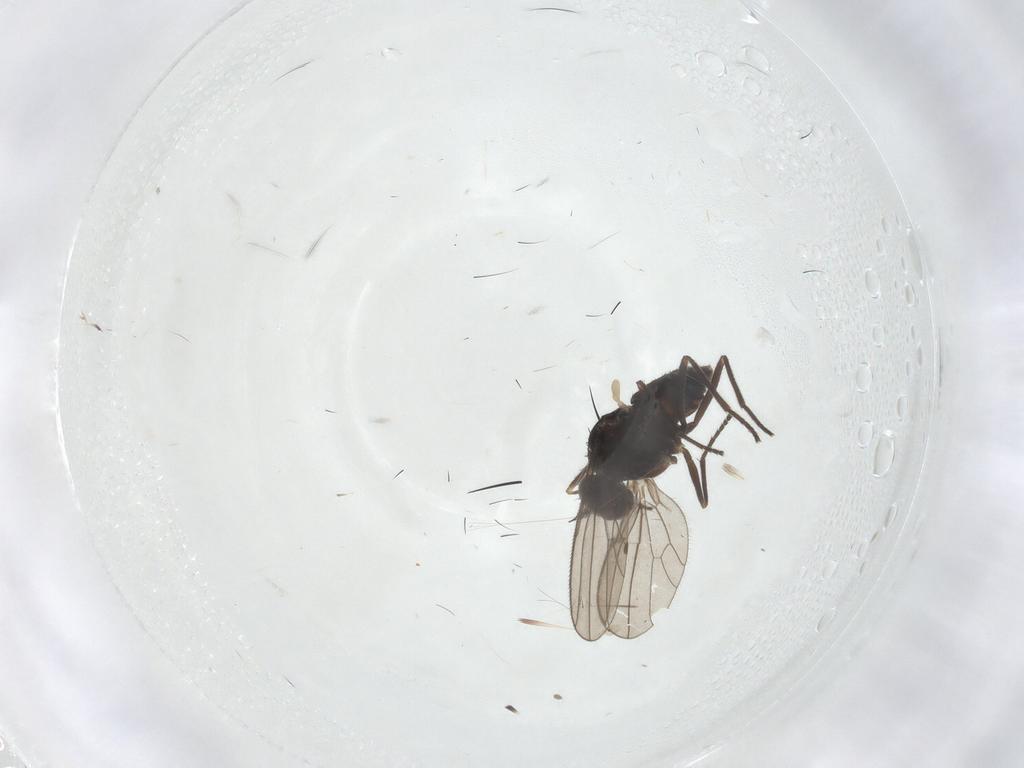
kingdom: Animalia
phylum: Arthropoda
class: Insecta
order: Diptera
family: Dolichopodidae
